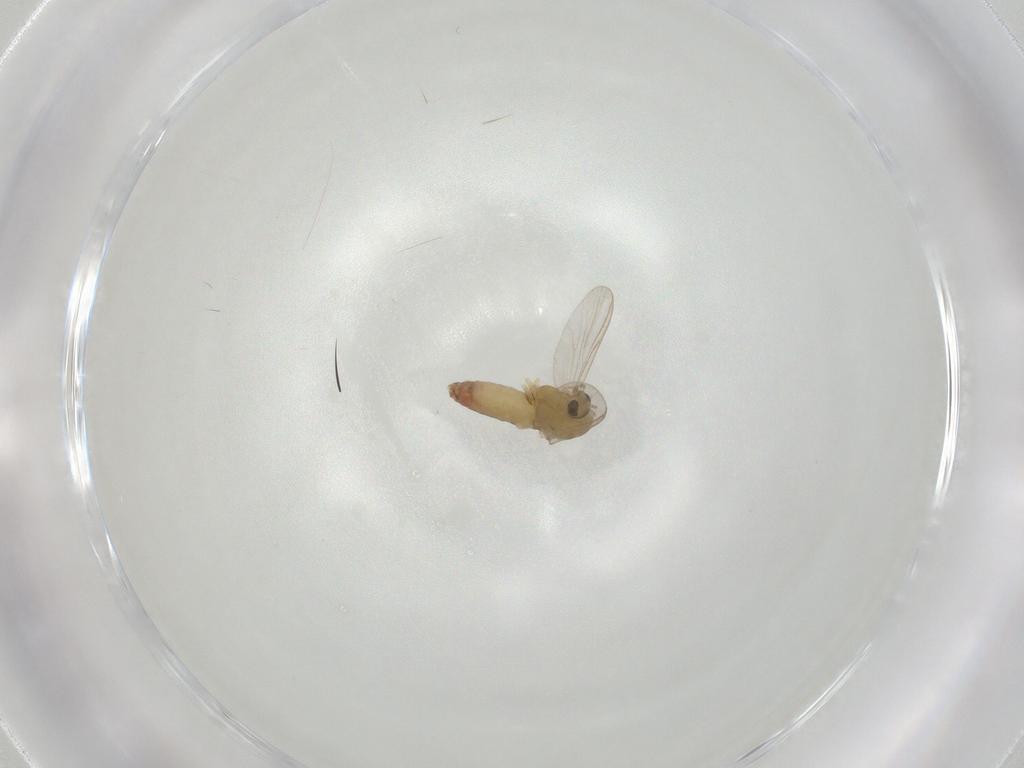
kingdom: Animalia
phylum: Arthropoda
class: Insecta
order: Diptera
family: Chironomidae
